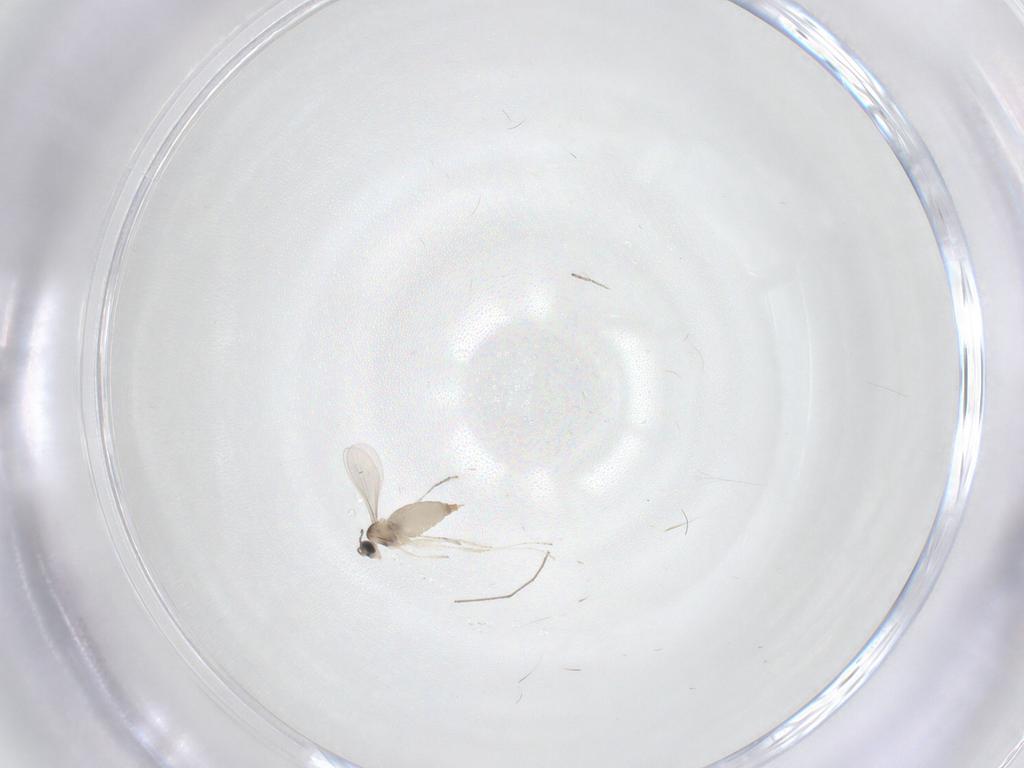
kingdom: Animalia
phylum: Arthropoda
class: Insecta
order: Diptera
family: Chironomidae
